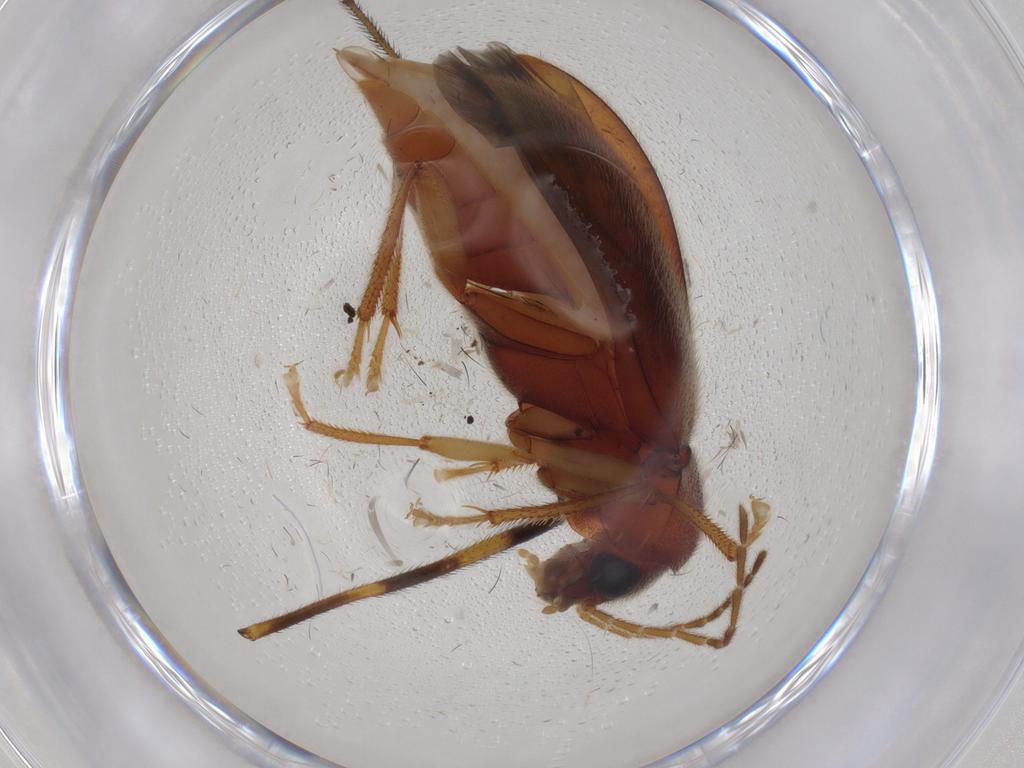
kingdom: Animalia
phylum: Arthropoda
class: Insecta
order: Coleoptera
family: Ptilodactylidae
